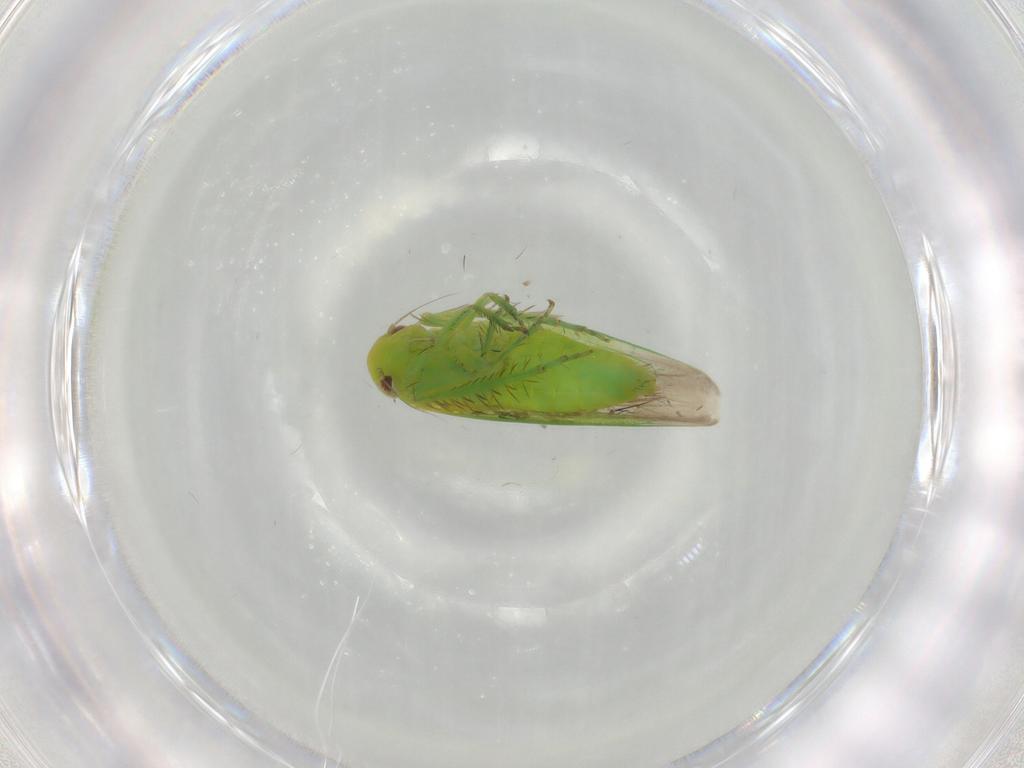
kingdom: Animalia
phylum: Arthropoda
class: Insecta
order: Hemiptera
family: Cicadellidae
